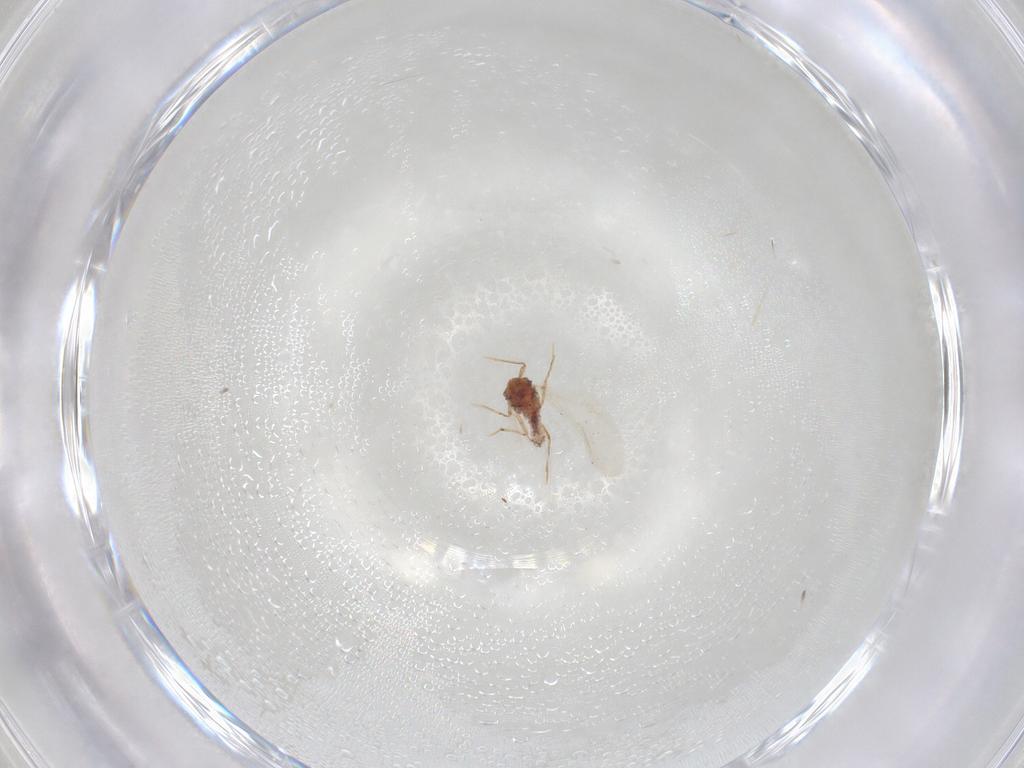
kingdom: Animalia
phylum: Arthropoda
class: Insecta
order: Diptera
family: Culicidae
